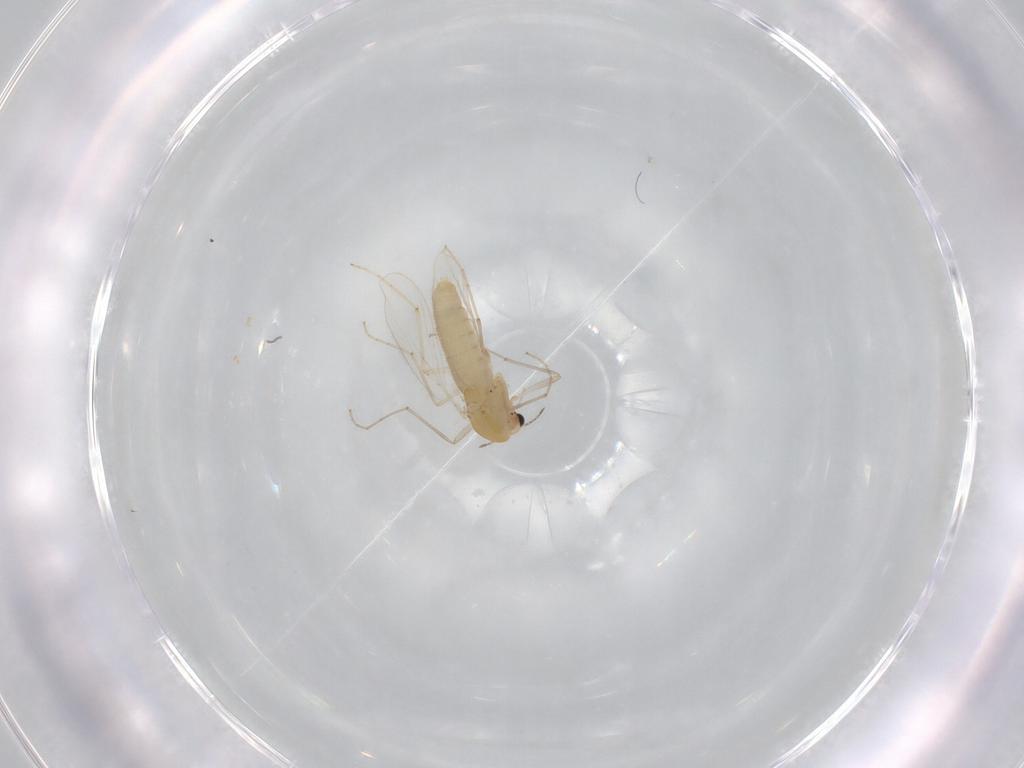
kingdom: Animalia
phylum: Arthropoda
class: Insecta
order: Diptera
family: Chironomidae
